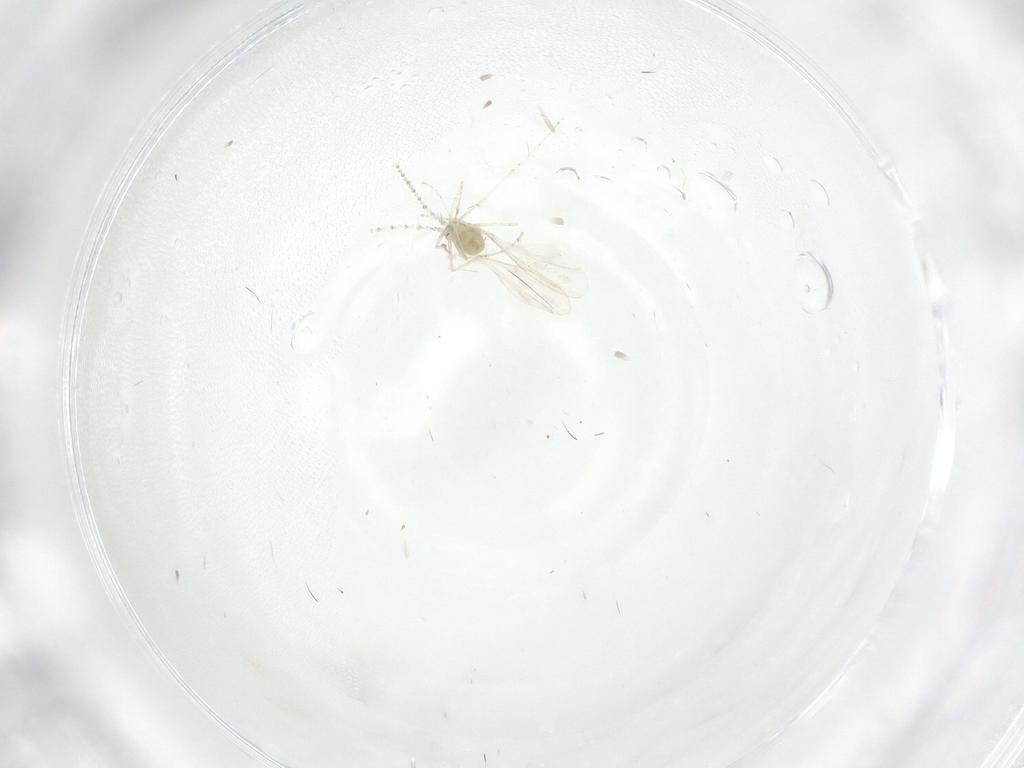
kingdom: Animalia
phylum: Arthropoda
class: Insecta
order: Diptera
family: Cecidomyiidae
